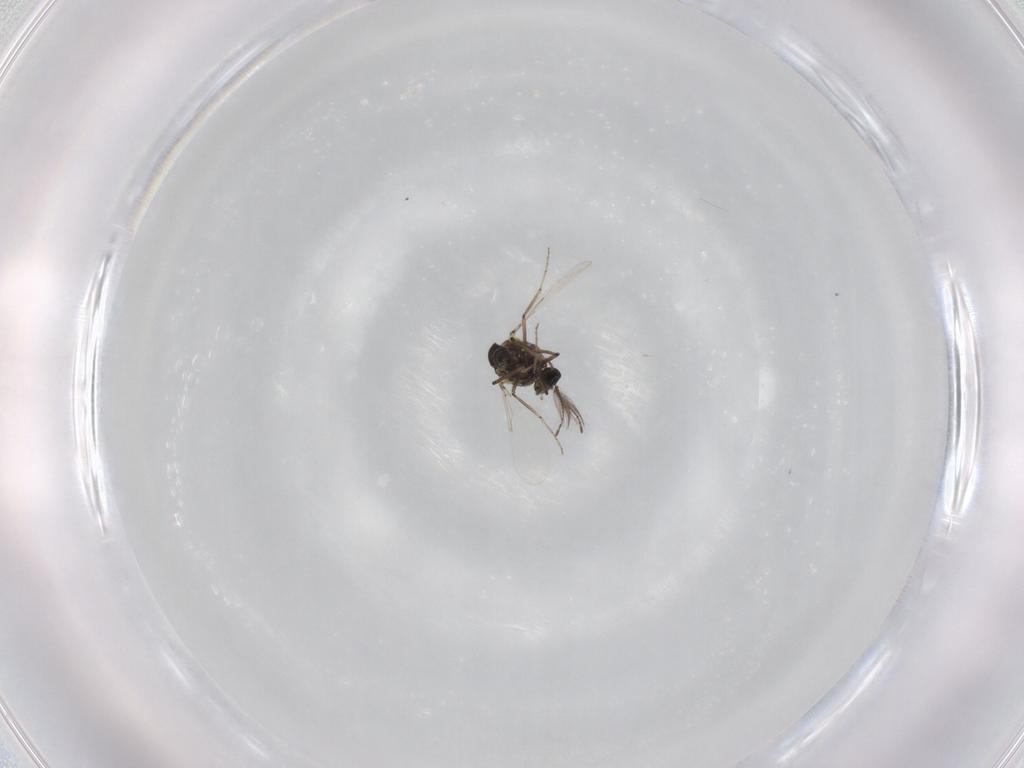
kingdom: Animalia
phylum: Arthropoda
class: Insecta
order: Diptera
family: Ceratopogonidae
